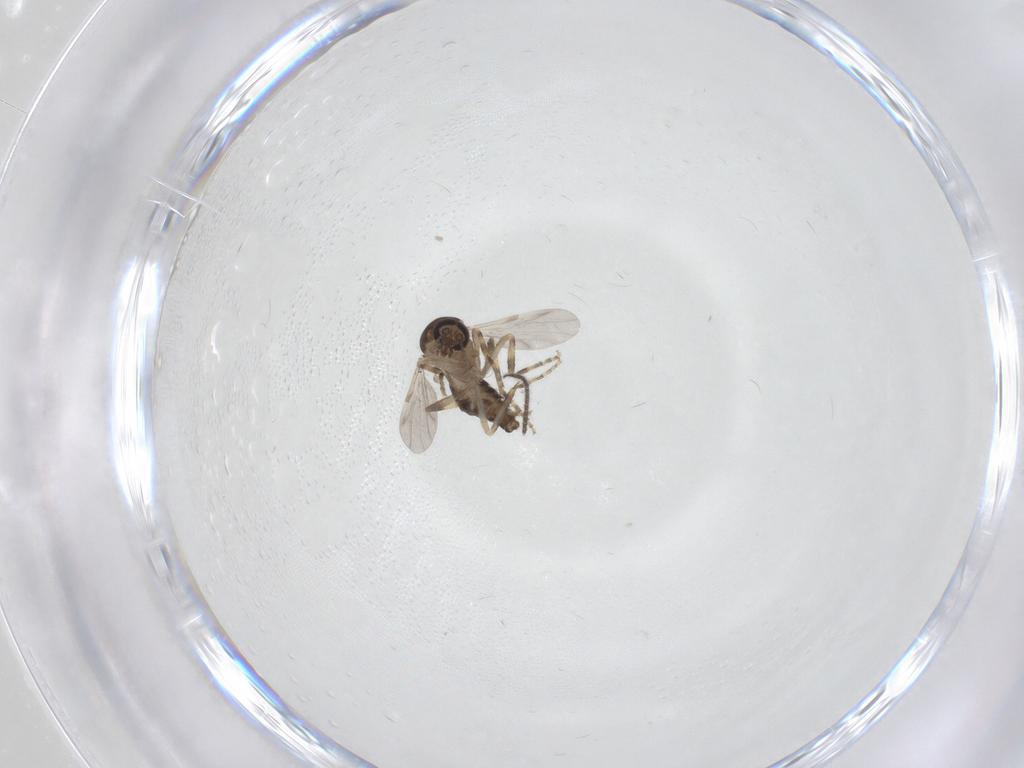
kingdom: Animalia
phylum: Arthropoda
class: Insecta
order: Diptera
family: Ceratopogonidae
